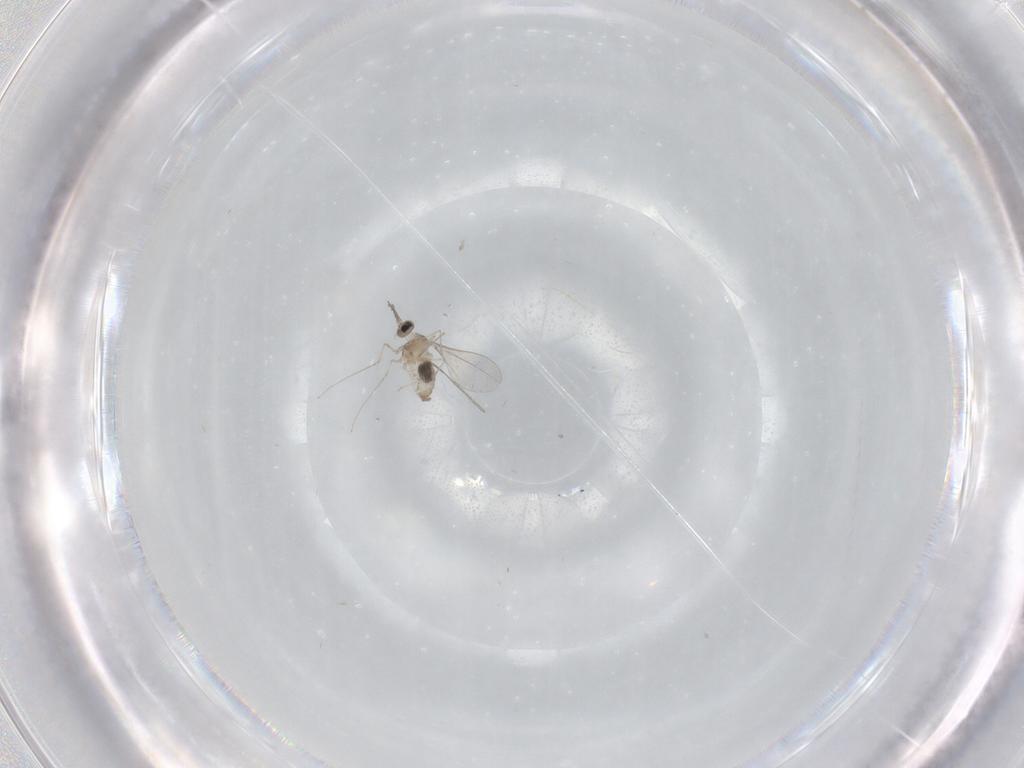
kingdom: Animalia
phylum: Arthropoda
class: Insecta
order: Diptera
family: Cecidomyiidae
